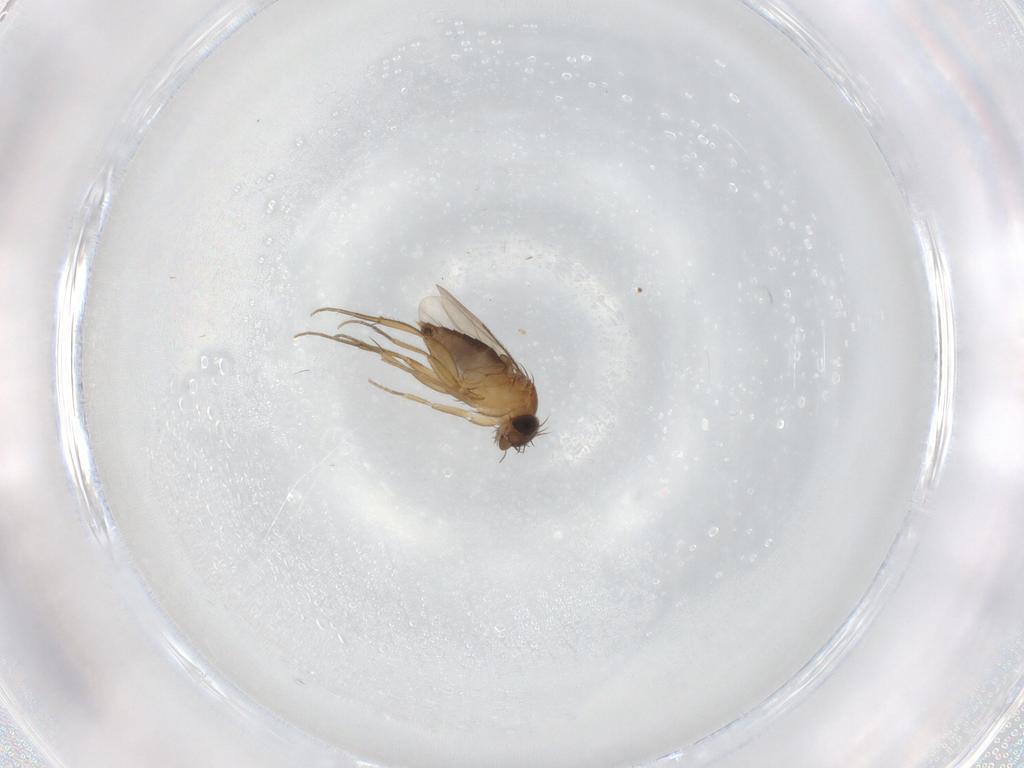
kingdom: Animalia
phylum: Arthropoda
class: Insecta
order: Diptera
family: Phoridae
